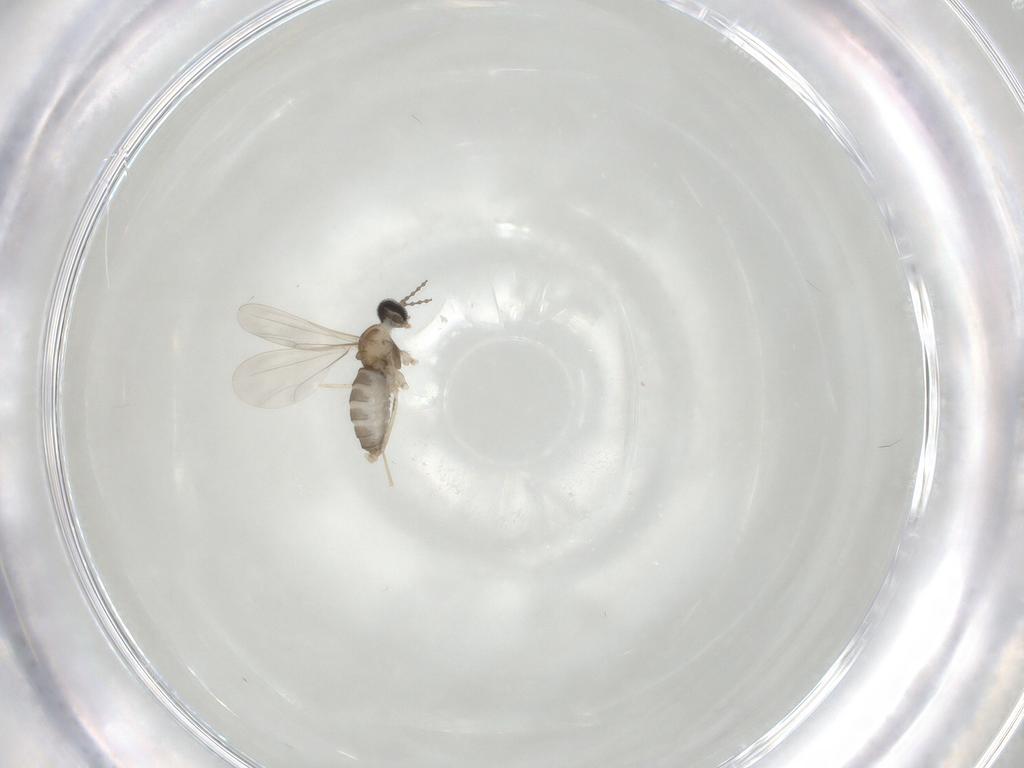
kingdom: Animalia
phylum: Arthropoda
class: Insecta
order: Diptera
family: Cecidomyiidae
